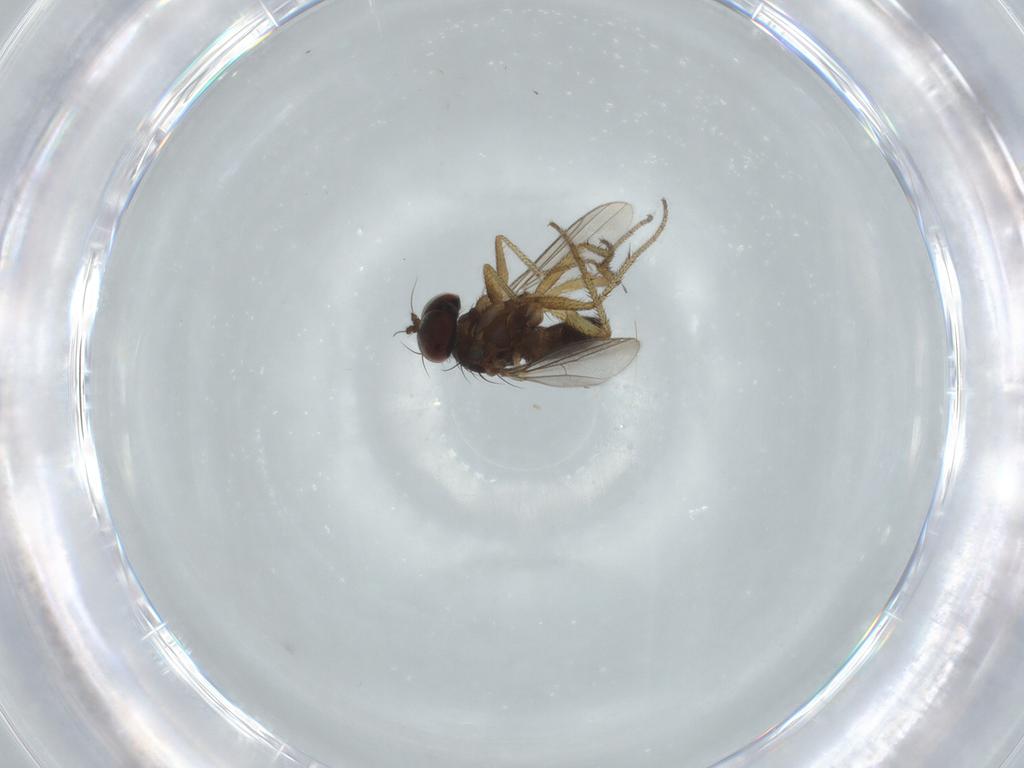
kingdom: Animalia
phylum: Arthropoda
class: Insecta
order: Diptera
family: Dolichopodidae
